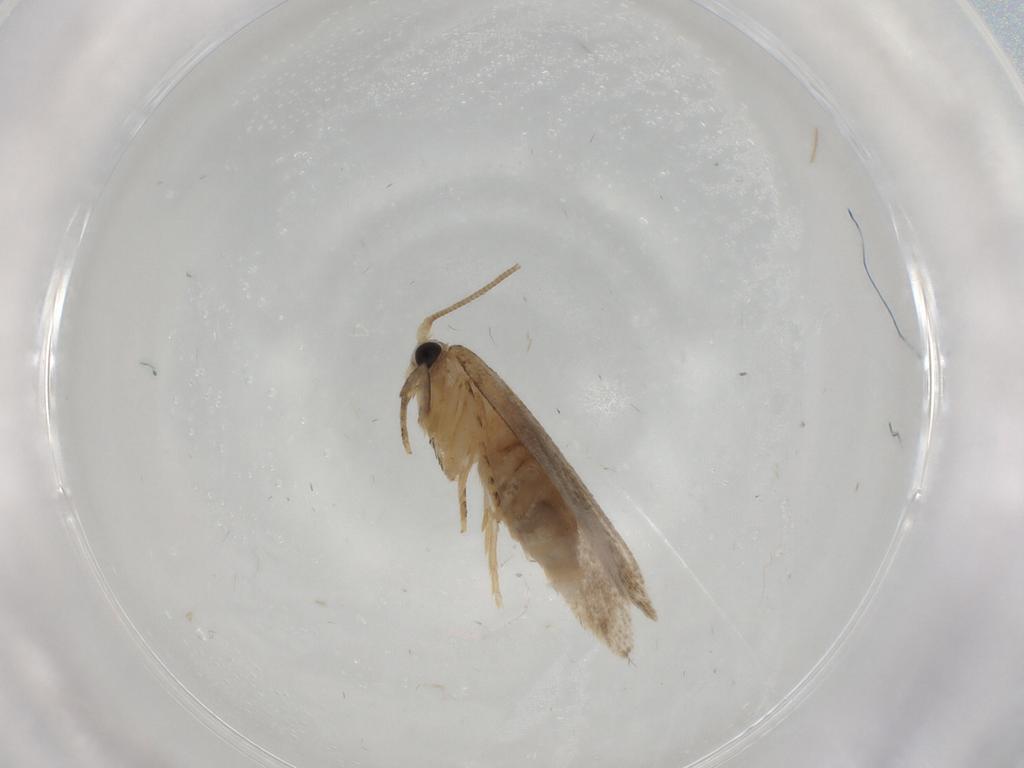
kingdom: Animalia
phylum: Arthropoda
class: Insecta
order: Lepidoptera
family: Nepticulidae
